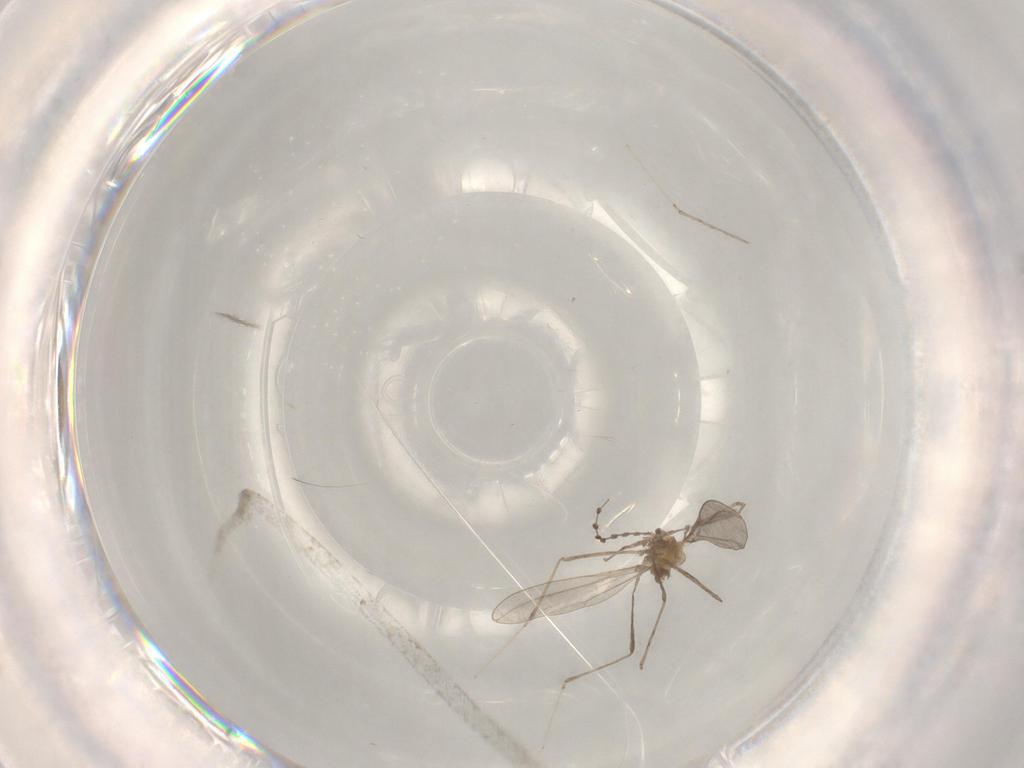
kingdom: Animalia
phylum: Arthropoda
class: Insecta
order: Diptera
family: Cecidomyiidae
